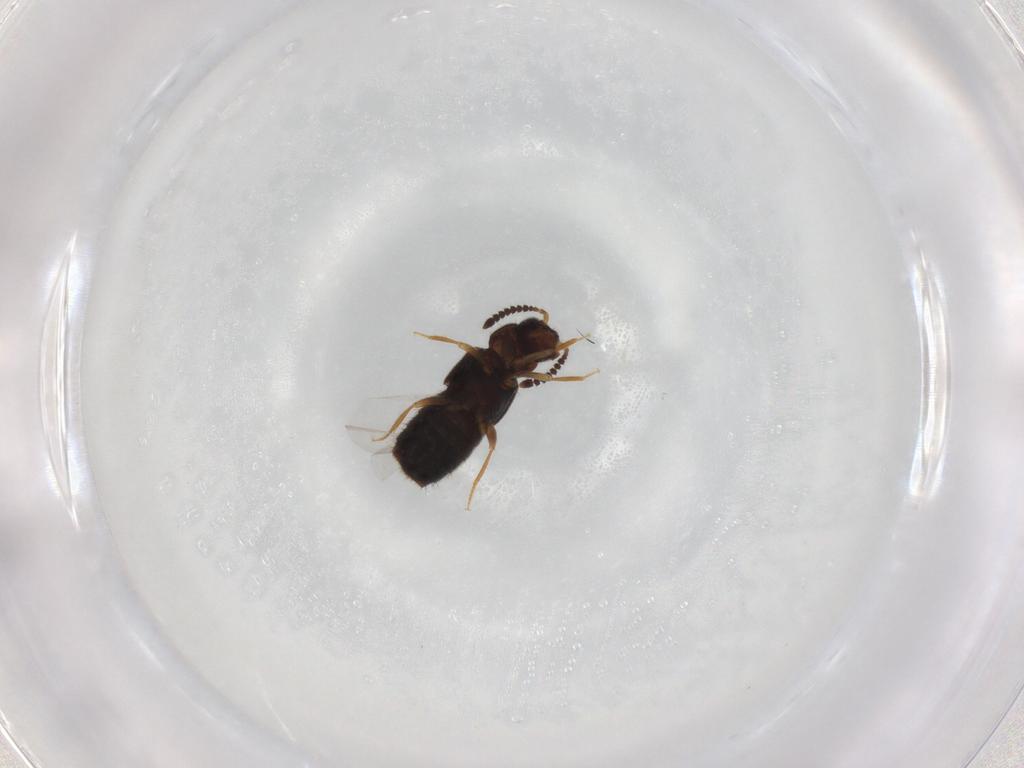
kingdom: Animalia
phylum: Arthropoda
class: Insecta
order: Coleoptera
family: Staphylinidae
